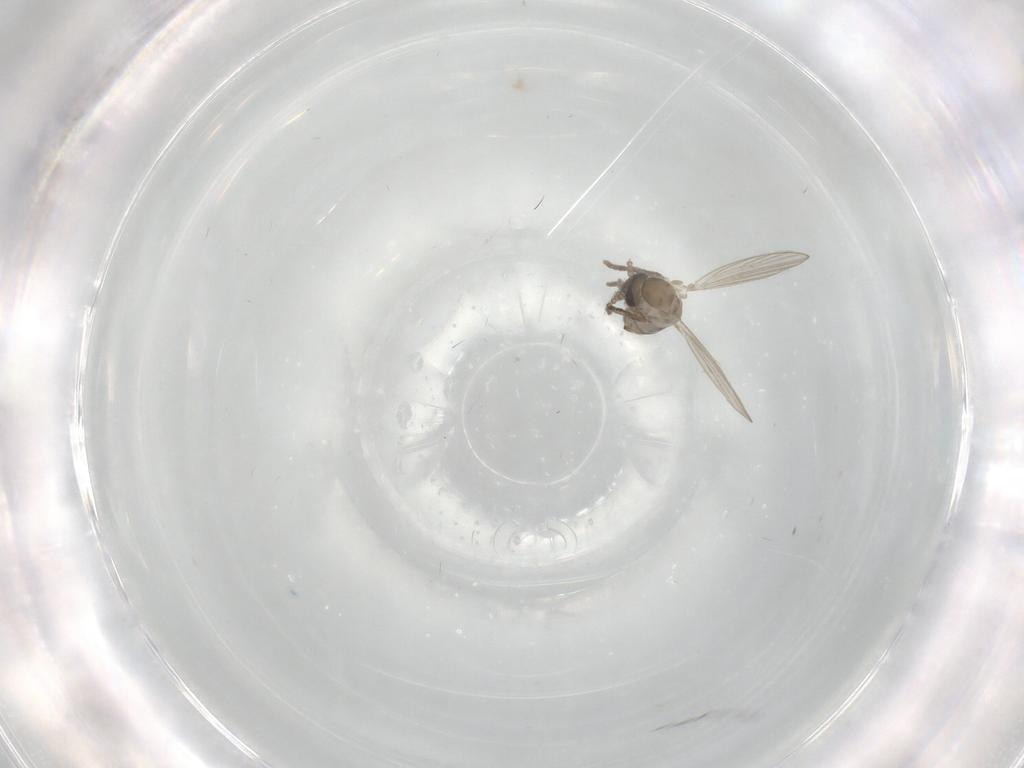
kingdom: Animalia
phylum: Arthropoda
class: Insecta
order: Diptera
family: Psychodidae
